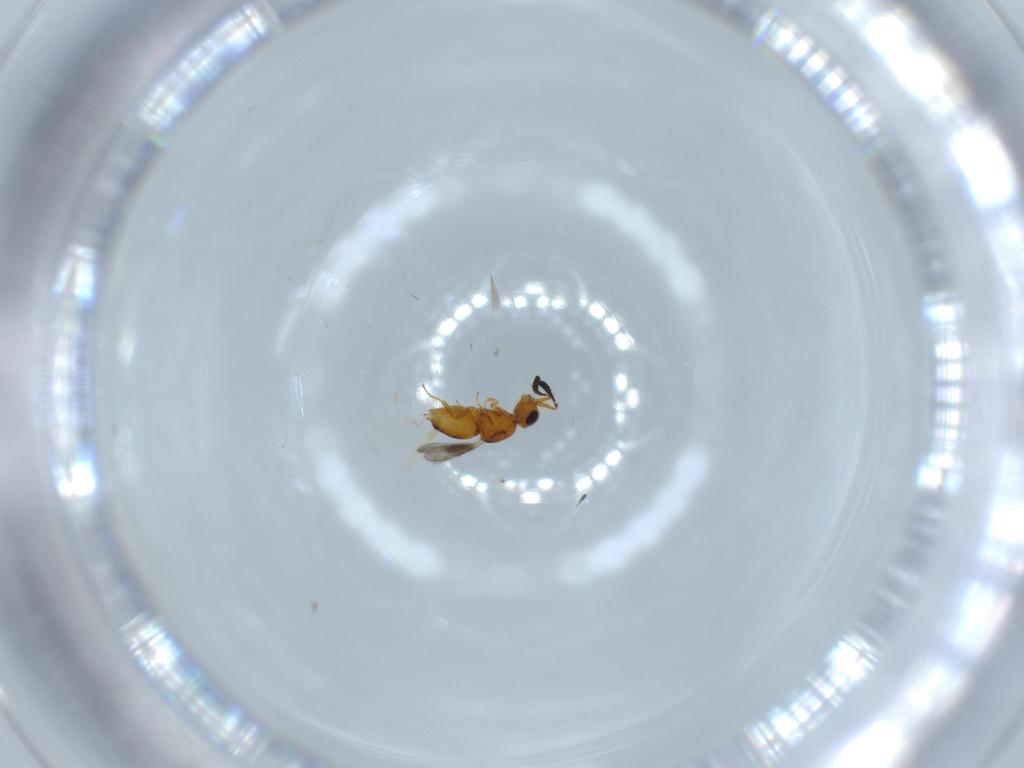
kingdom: Animalia
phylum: Arthropoda
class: Insecta
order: Hymenoptera
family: Ceraphronidae
